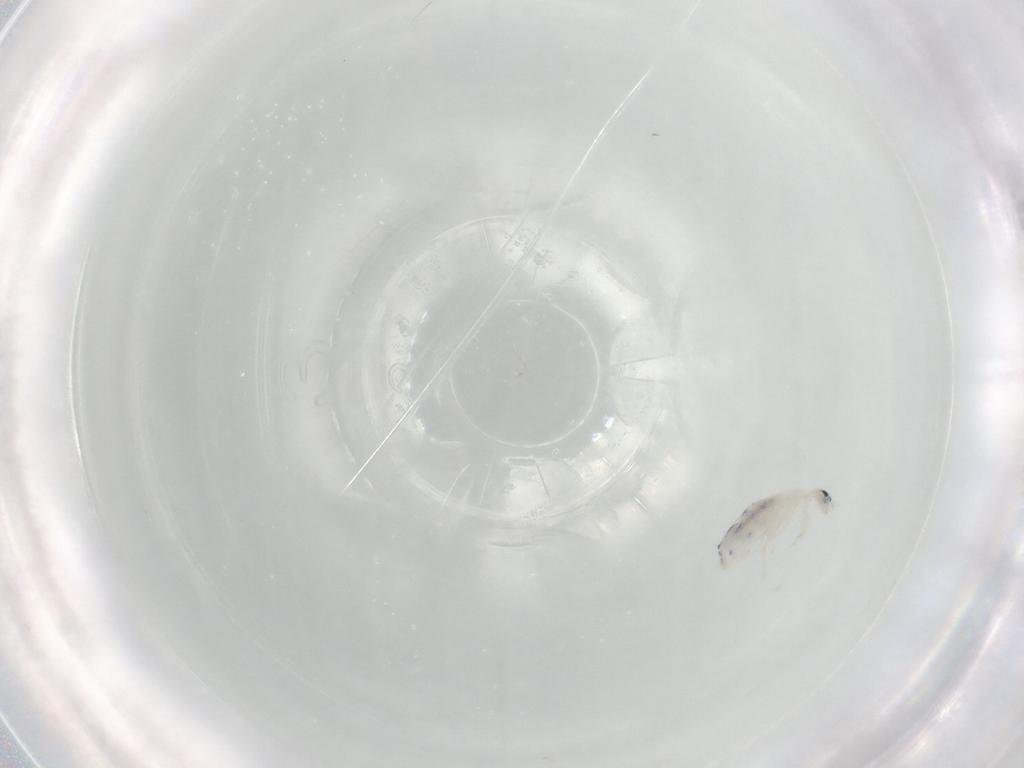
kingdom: Animalia
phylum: Arthropoda
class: Collembola
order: Entomobryomorpha
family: Entomobryidae
